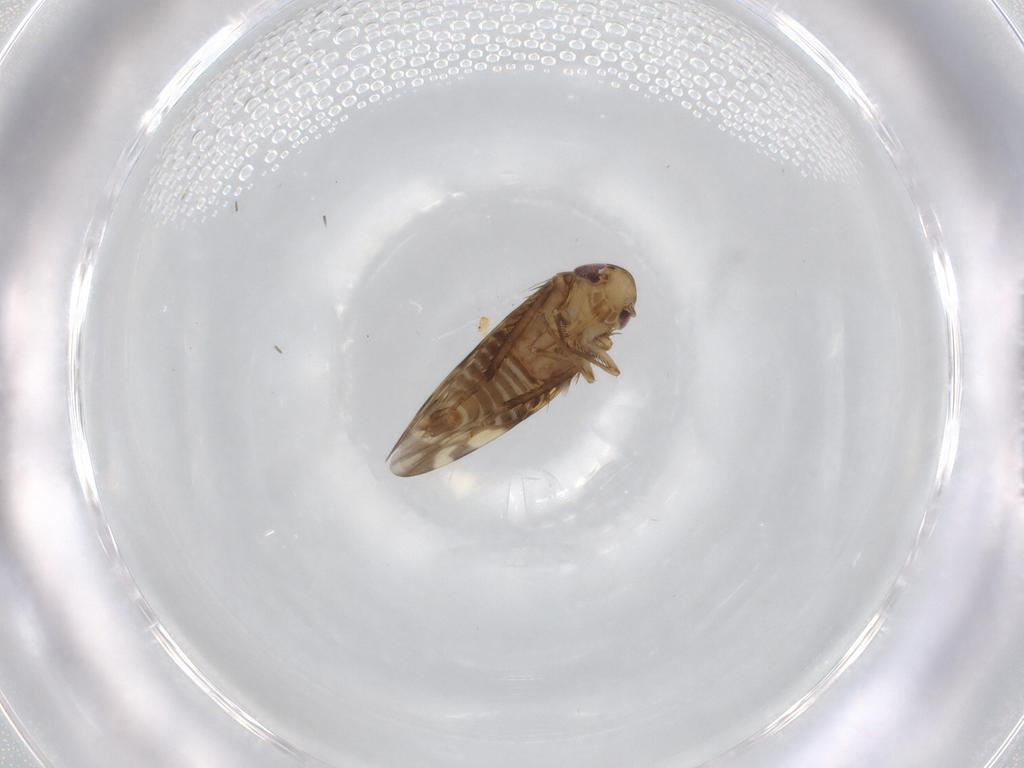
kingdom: Animalia
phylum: Arthropoda
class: Insecta
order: Hemiptera
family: Cicadellidae
